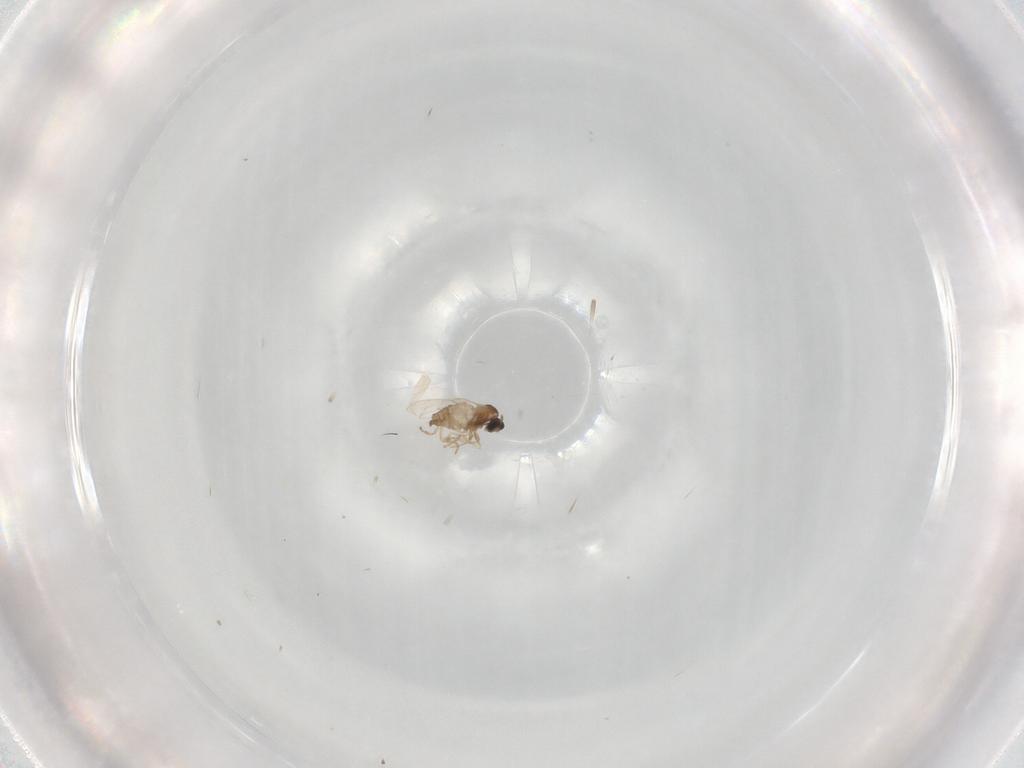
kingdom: Animalia
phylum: Arthropoda
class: Insecta
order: Diptera
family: Cecidomyiidae
